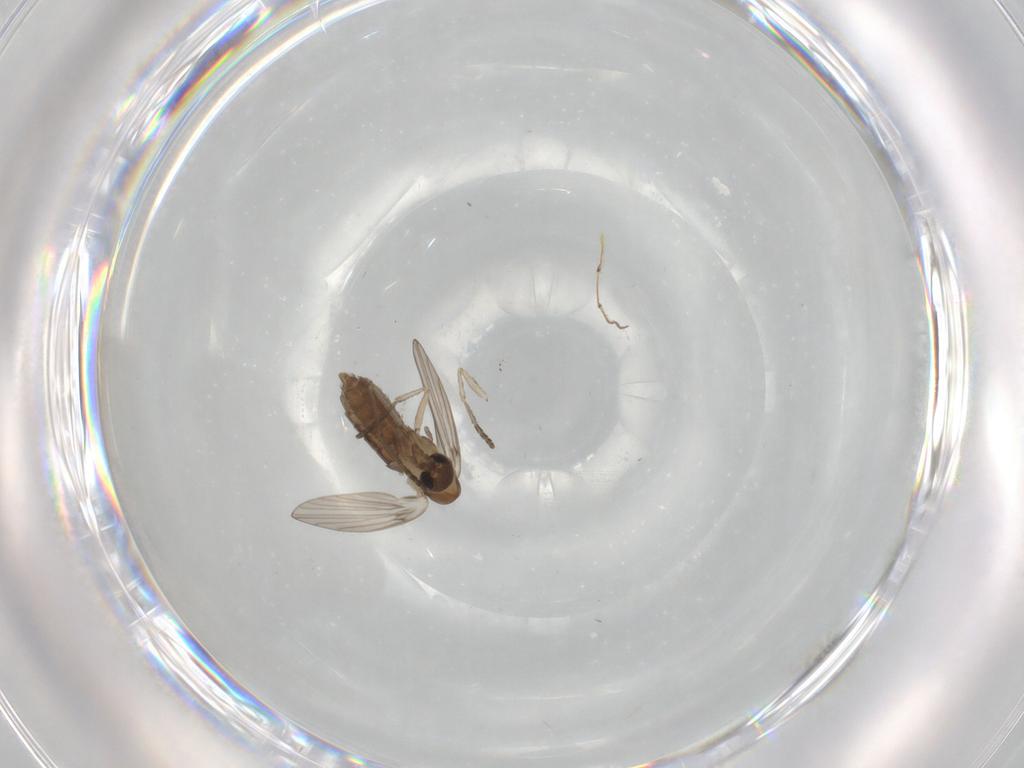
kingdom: Animalia
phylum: Arthropoda
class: Insecta
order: Diptera
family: Psychodidae
